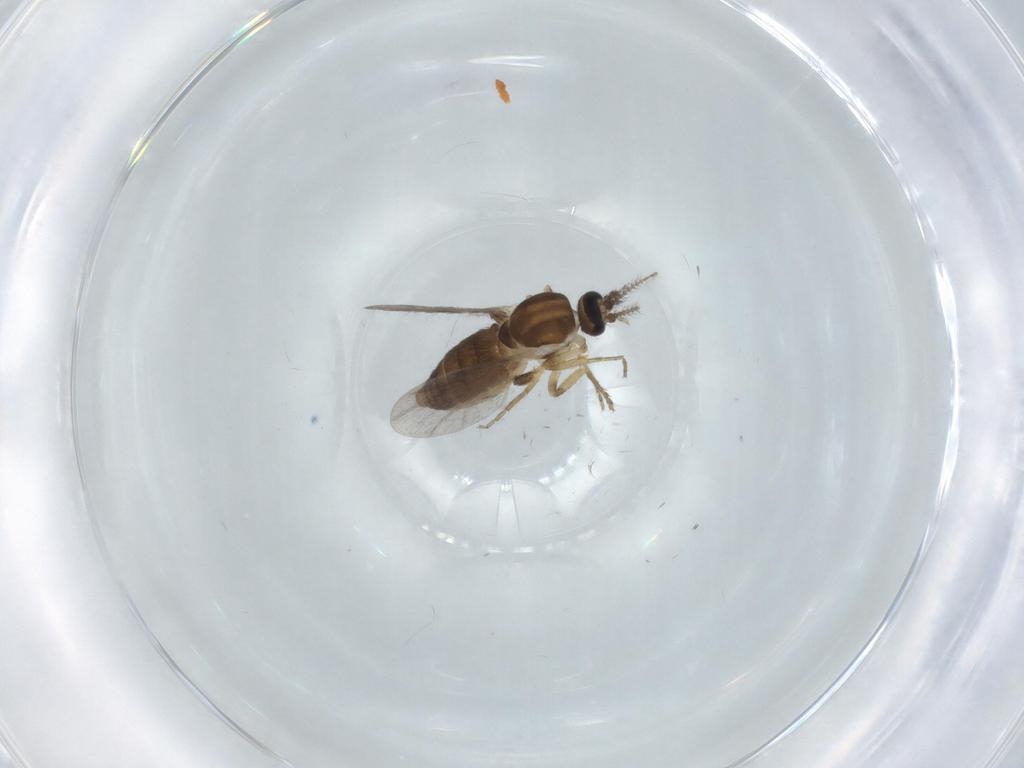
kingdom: Animalia
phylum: Arthropoda
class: Insecta
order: Diptera
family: Ceratopogonidae
